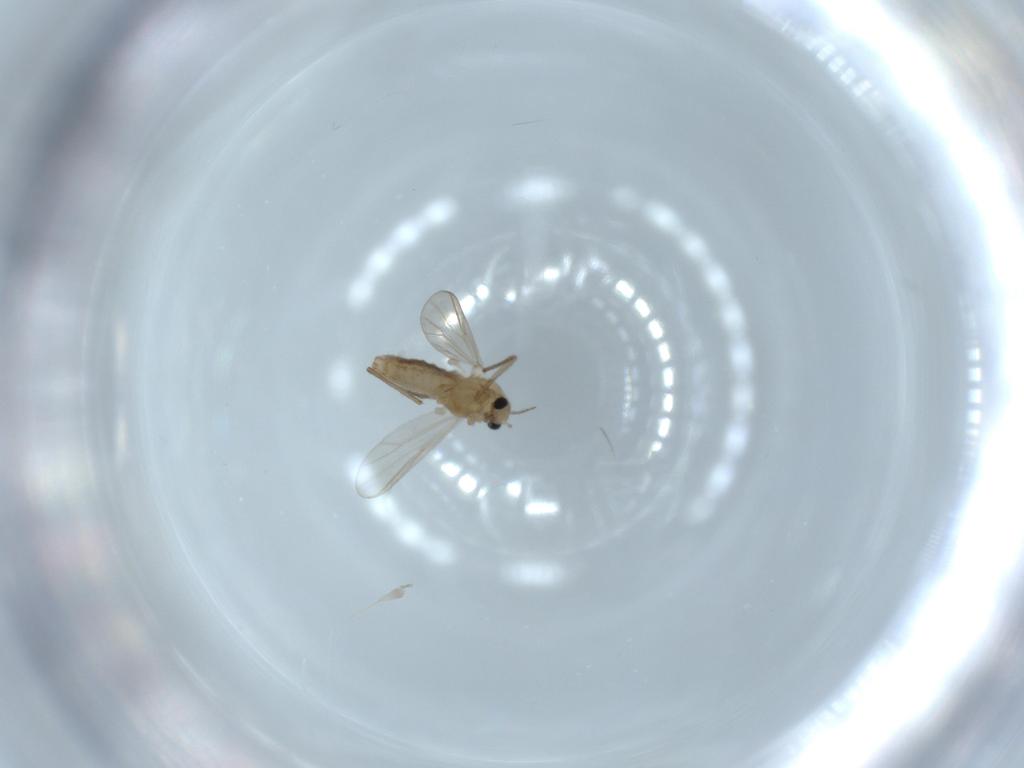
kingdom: Animalia
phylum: Arthropoda
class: Insecta
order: Diptera
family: Chironomidae
